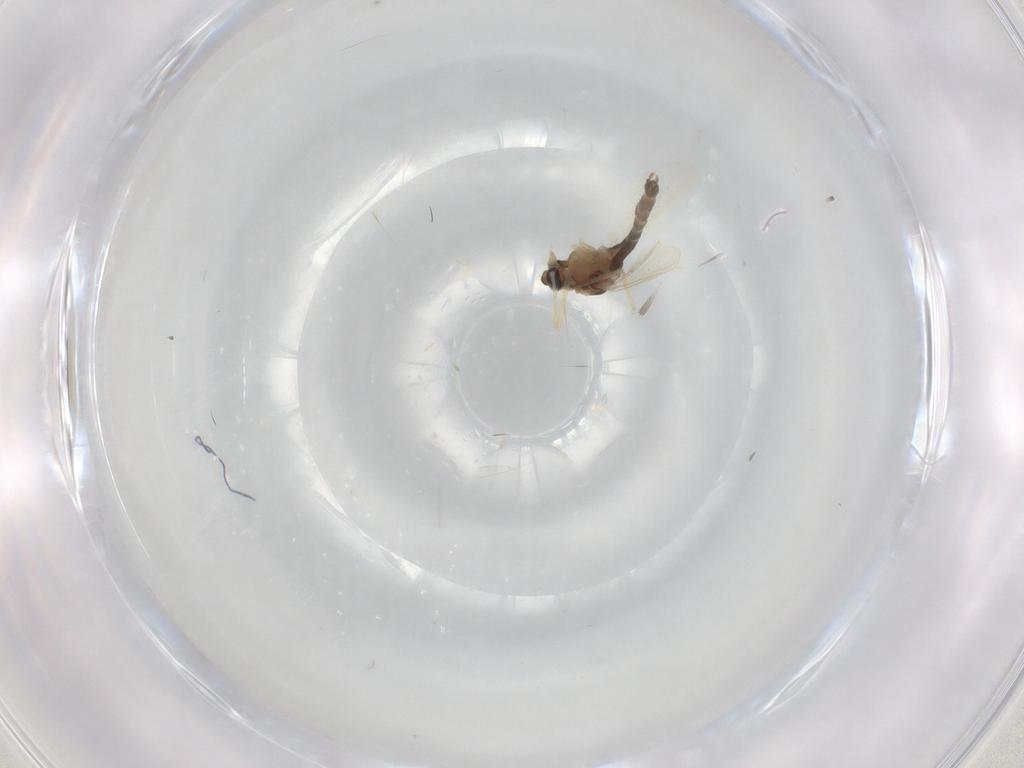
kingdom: Animalia
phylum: Arthropoda
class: Insecta
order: Diptera
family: Chironomidae
